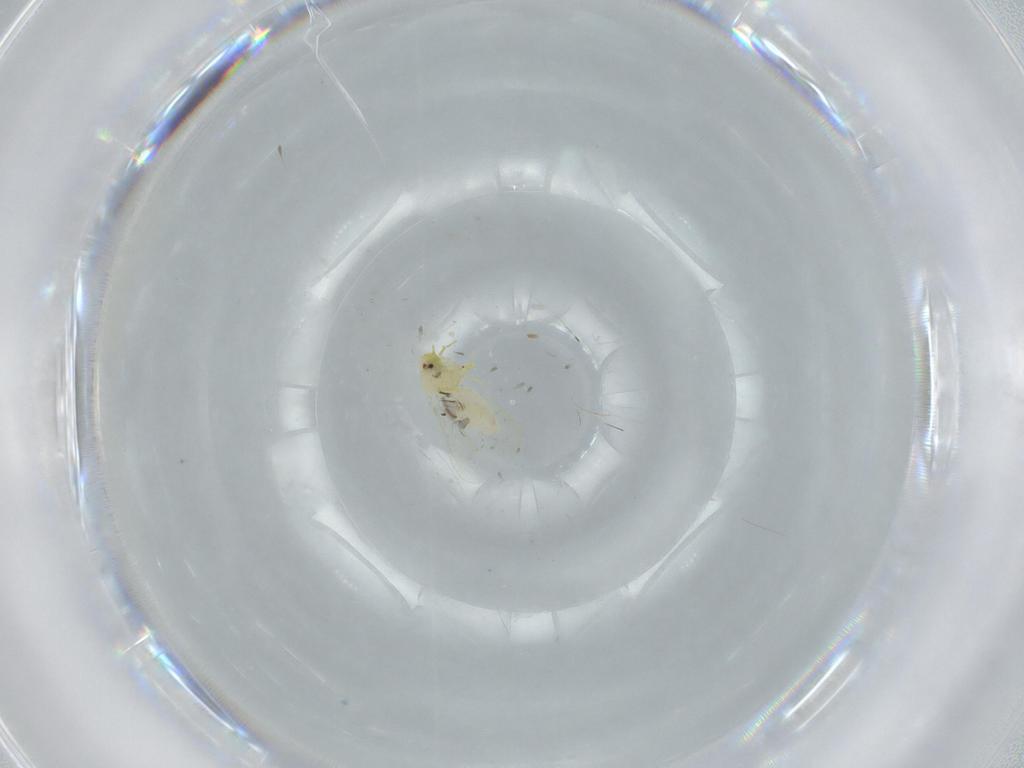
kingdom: Animalia
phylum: Arthropoda
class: Insecta
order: Hemiptera
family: Aleyrodidae
